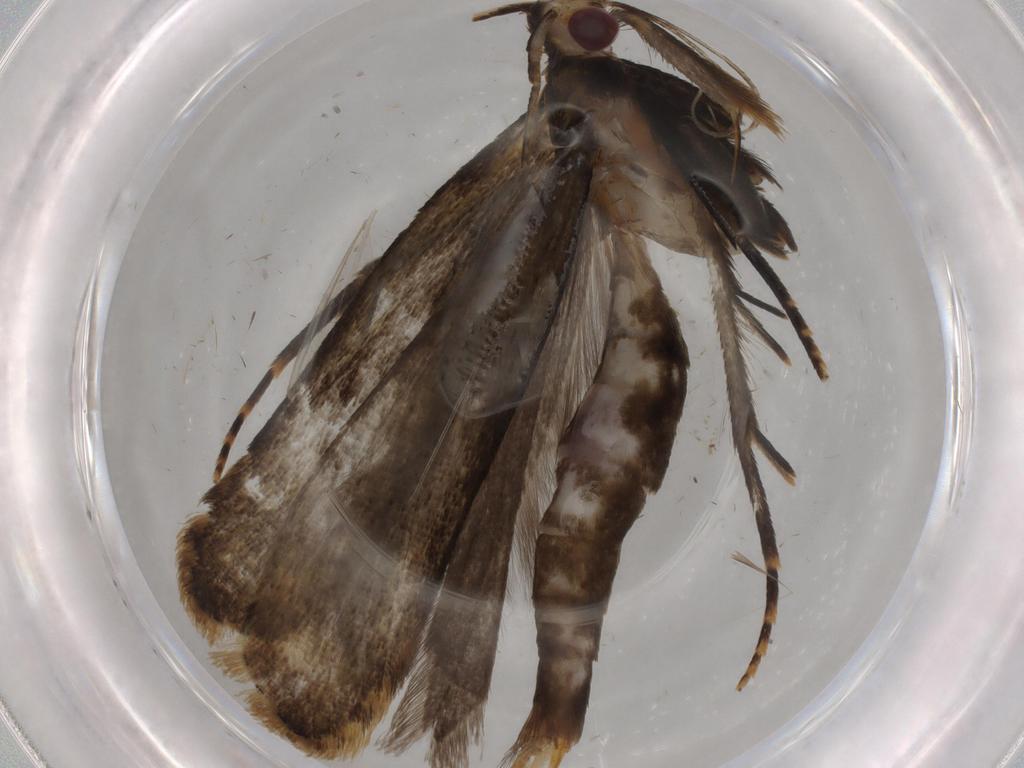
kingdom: Animalia
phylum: Arthropoda
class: Insecta
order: Lepidoptera
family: Gelechiidae
